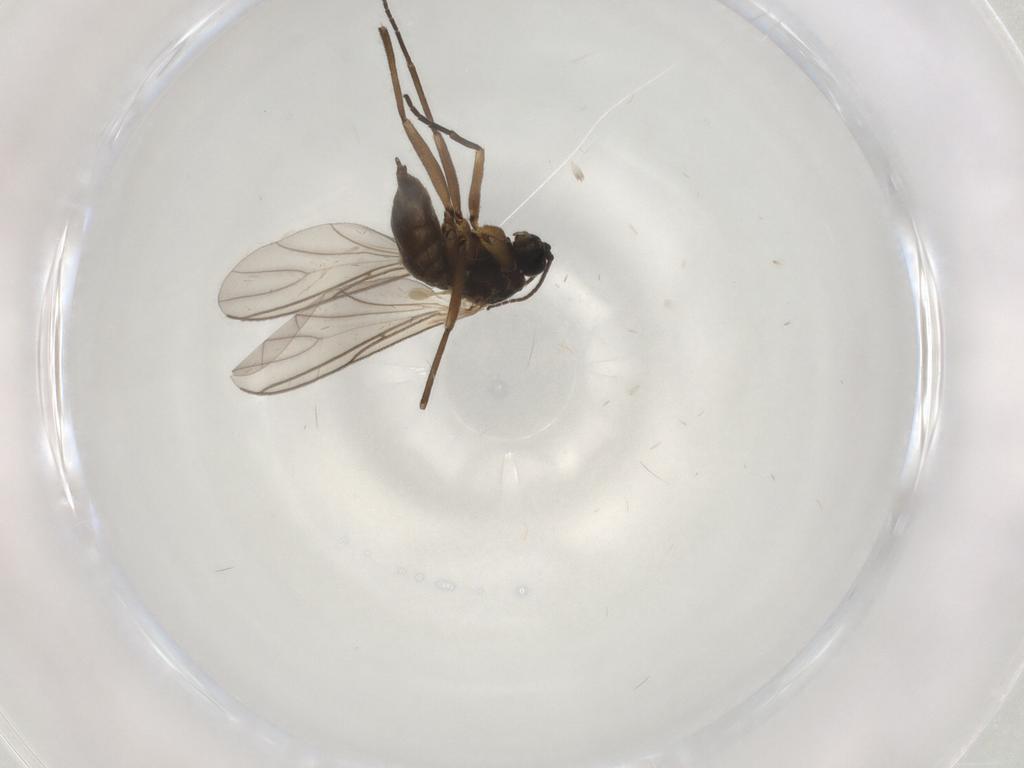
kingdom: Animalia
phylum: Arthropoda
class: Insecta
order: Diptera
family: Sciaridae
